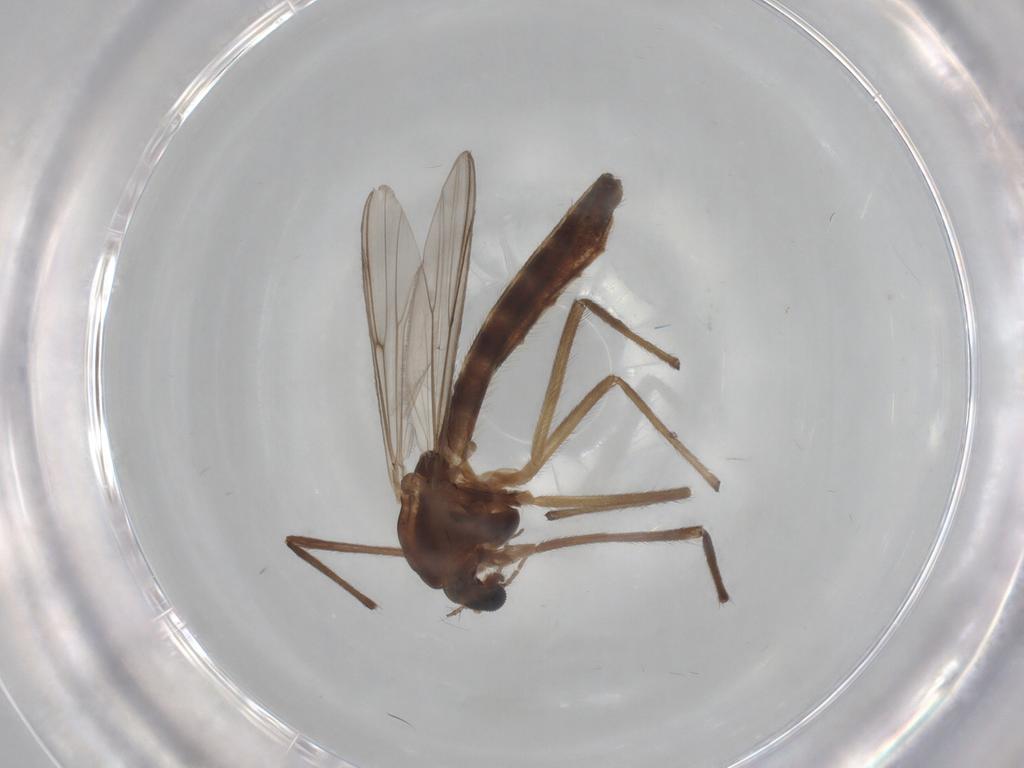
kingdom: Animalia
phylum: Arthropoda
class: Insecta
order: Diptera
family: Chironomidae
